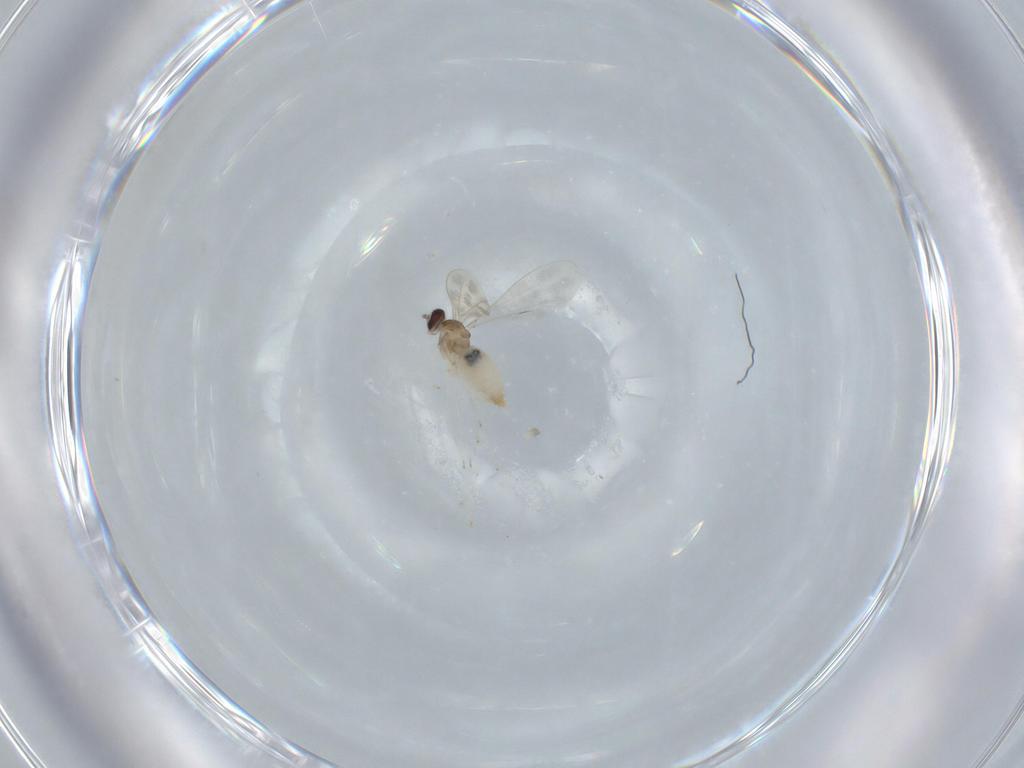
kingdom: Animalia
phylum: Arthropoda
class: Insecta
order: Diptera
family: Cecidomyiidae
